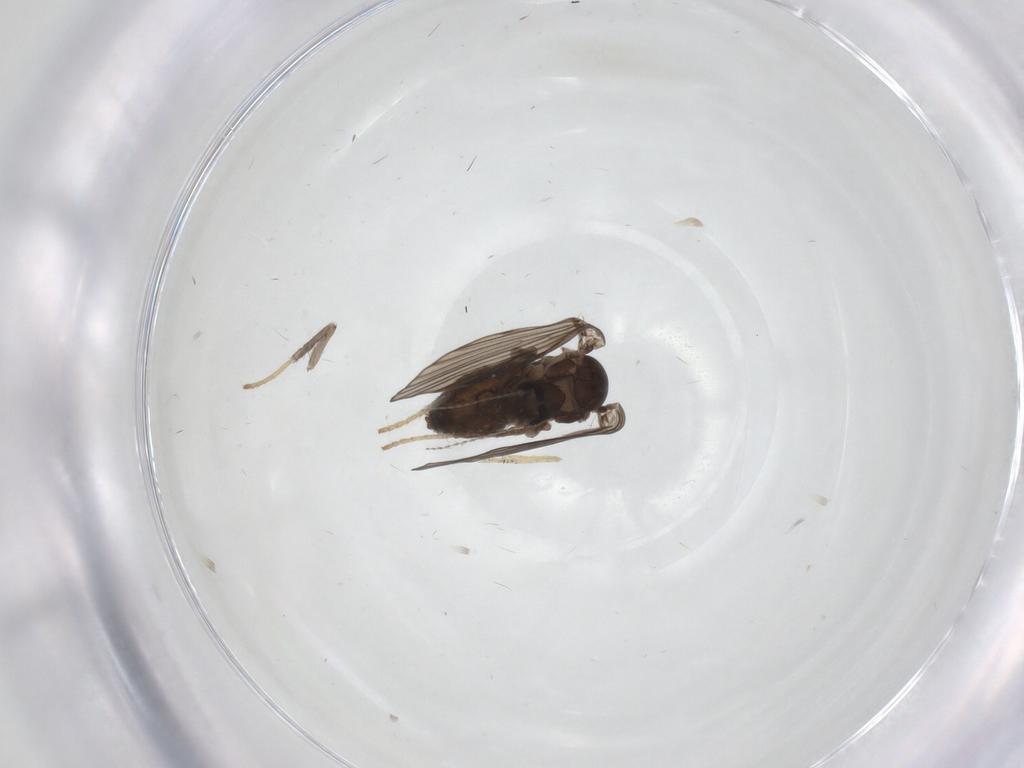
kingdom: Animalia
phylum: Arthropoda
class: Insecta
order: Diptera
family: Psychodidae
